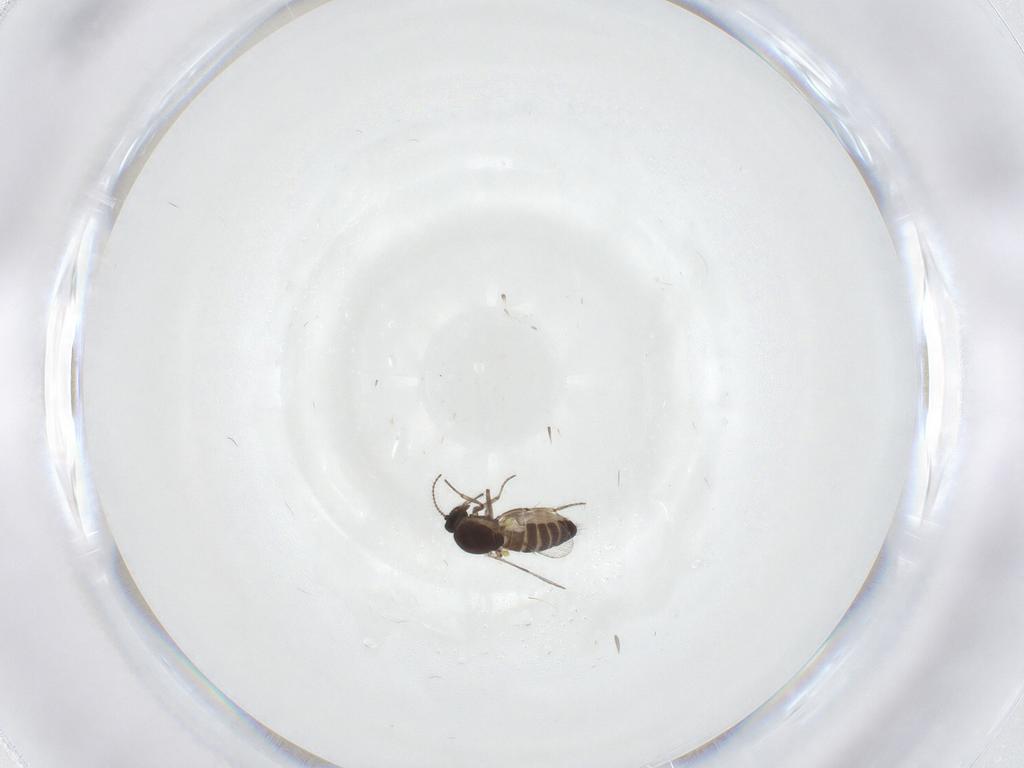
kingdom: Animalia
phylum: Arthropoda
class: Insecta
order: Diptera
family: Ceratopogonidae
